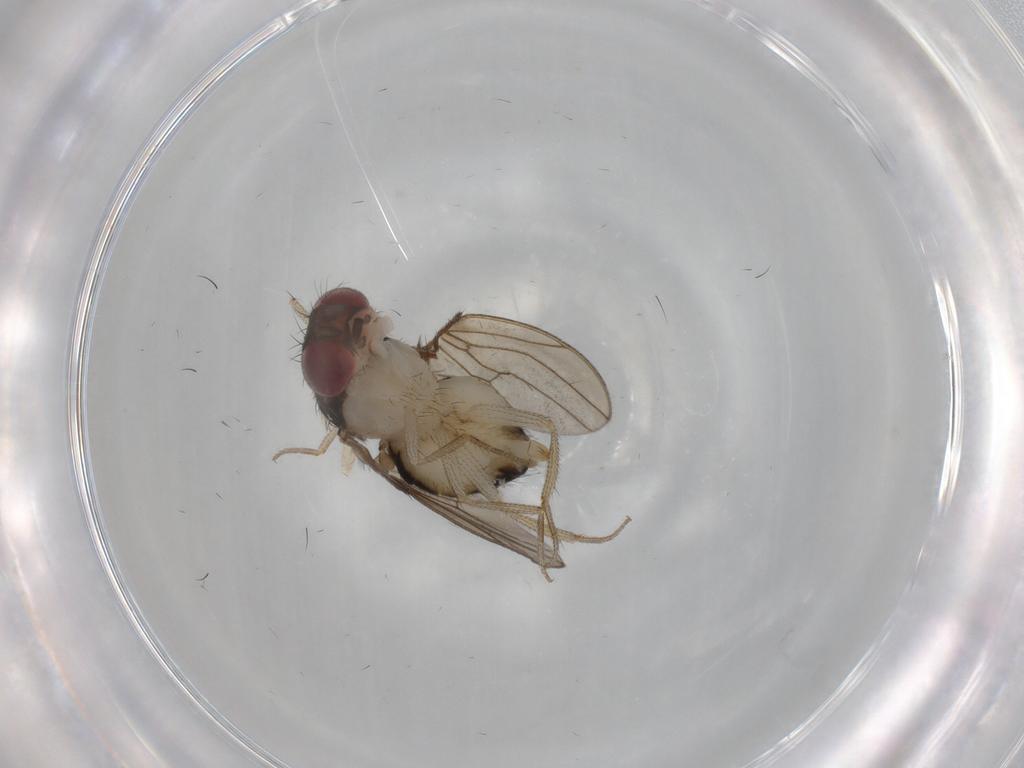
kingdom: Animalia
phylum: Arthropoda
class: Insecta
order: Diptera
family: Drosophilidae
